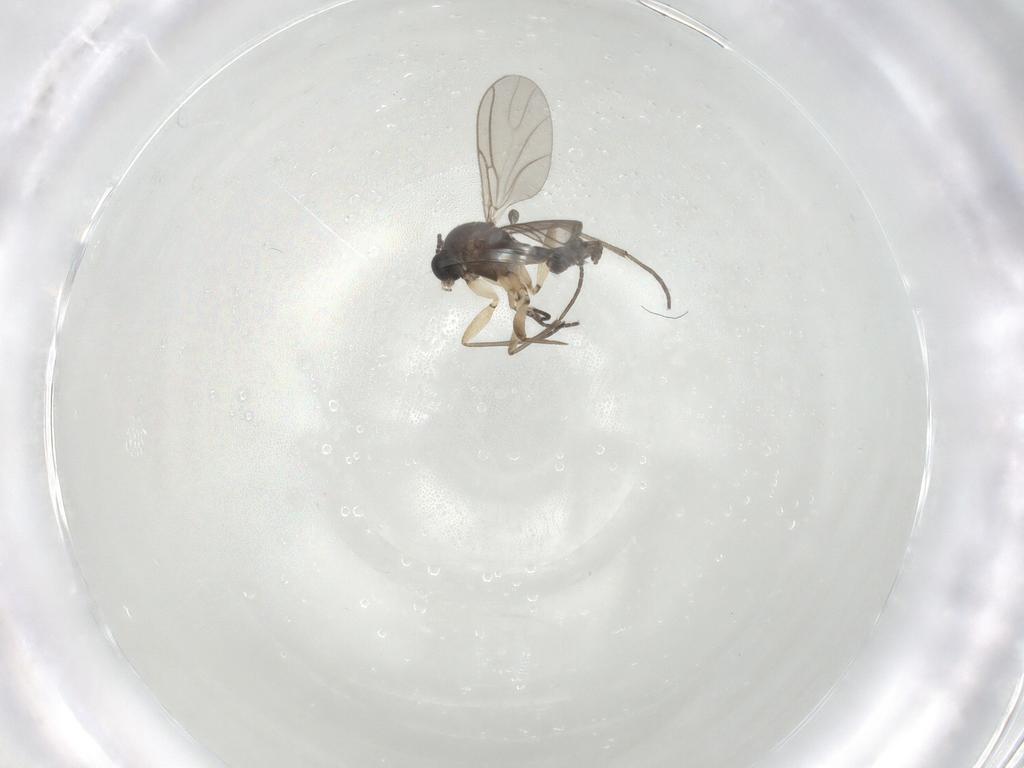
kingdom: Animalia
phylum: Arthropoda
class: Insecta
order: Diptera
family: Sciaridae
